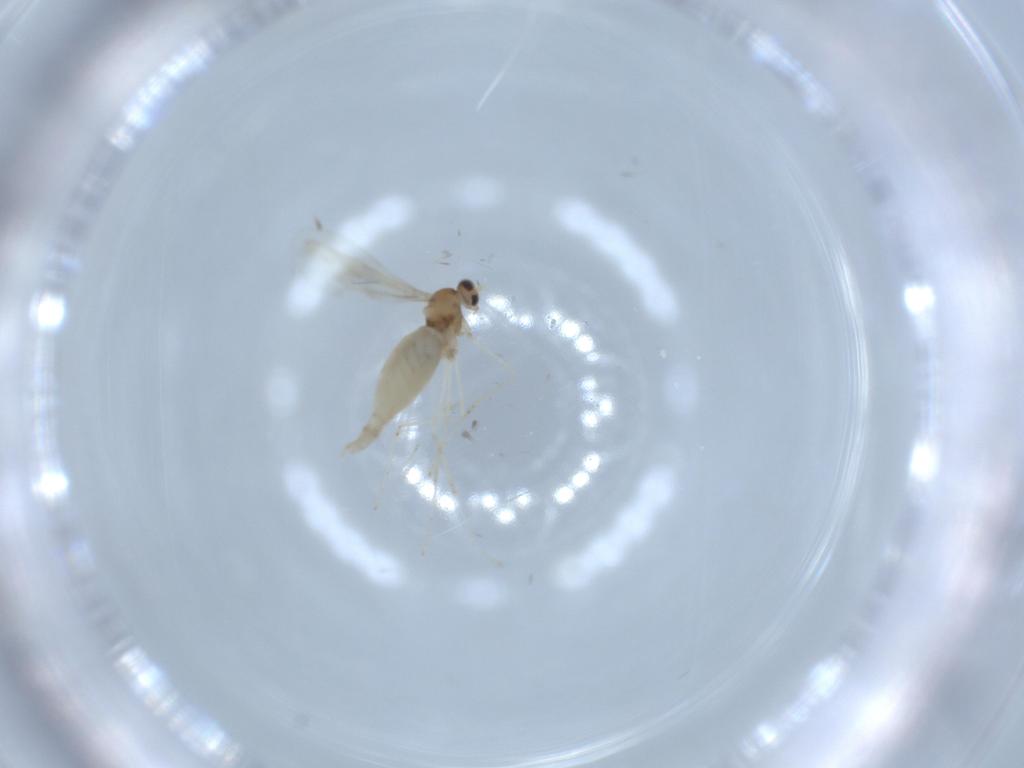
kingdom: Animalia
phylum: Arthropoda
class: Insecta
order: Diptera
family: Cecidomyiidae
